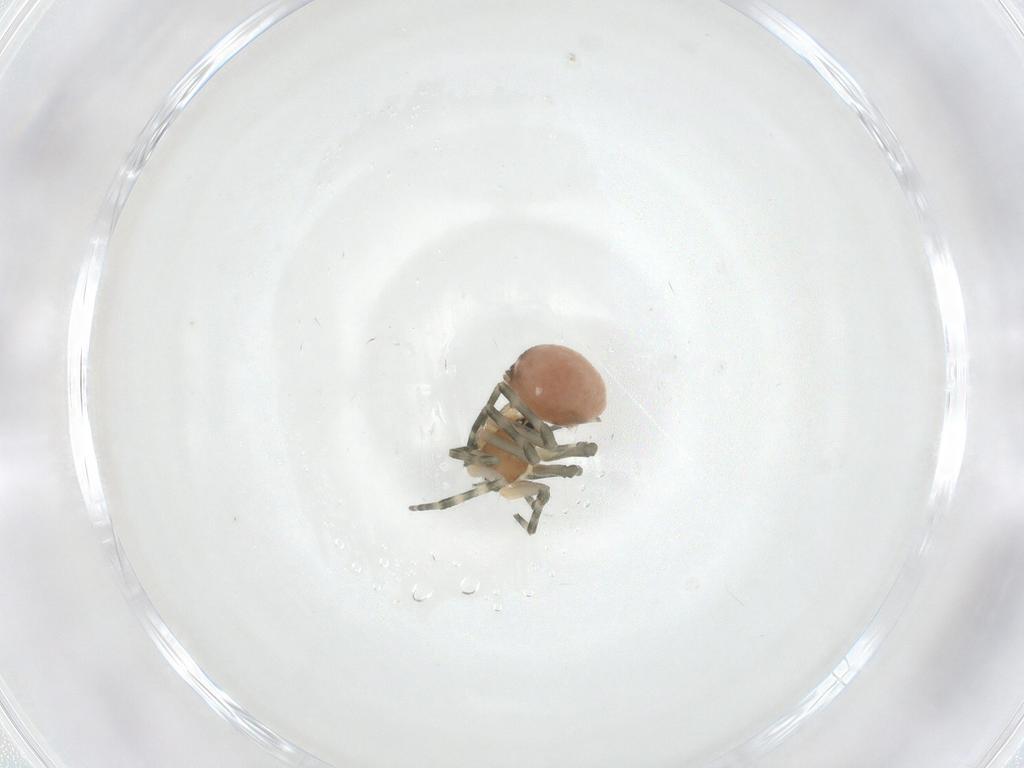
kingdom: Animalia
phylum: Arthropoda
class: Arachnida
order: Araneae
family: Linyphiidae
